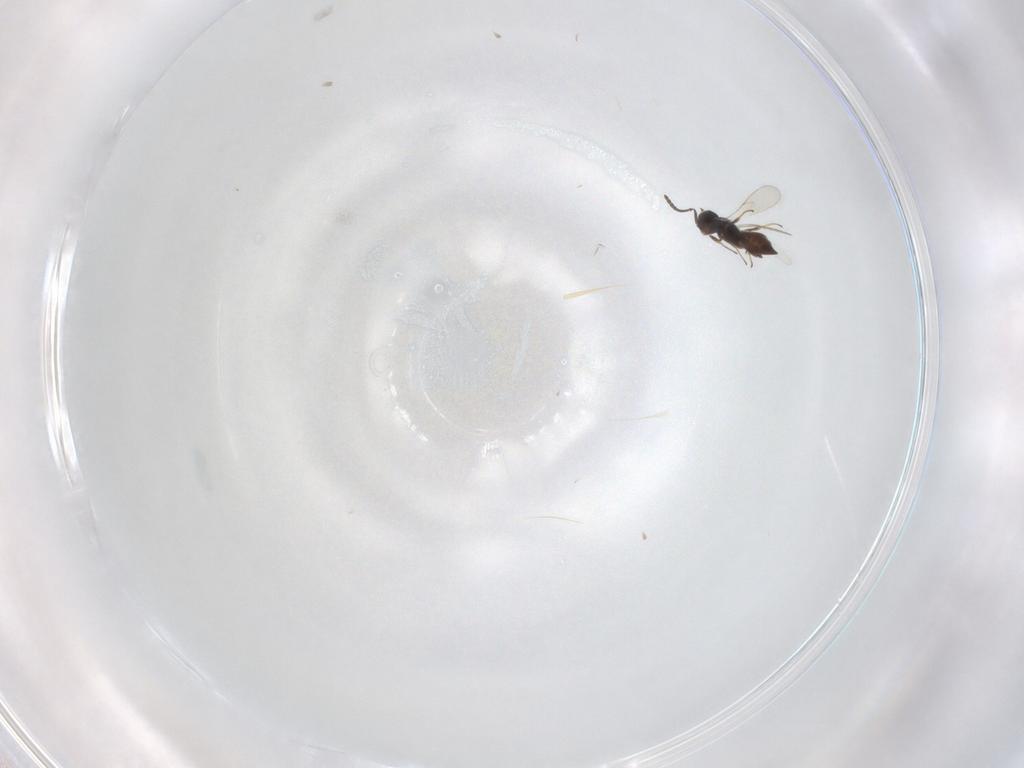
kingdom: Animalia
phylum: Arthropoda
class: Insecta
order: Hymenoptera
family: Scelionidae
